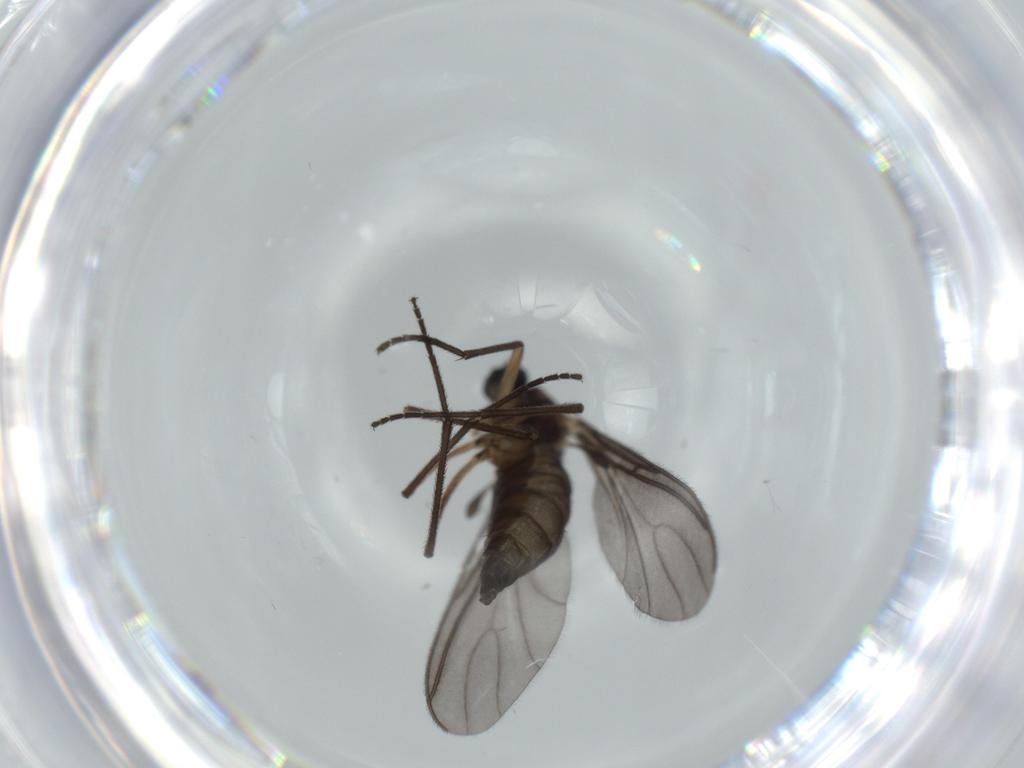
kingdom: Animalia
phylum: Arthropoda
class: Insecta
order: Diptera
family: Sciaridae
